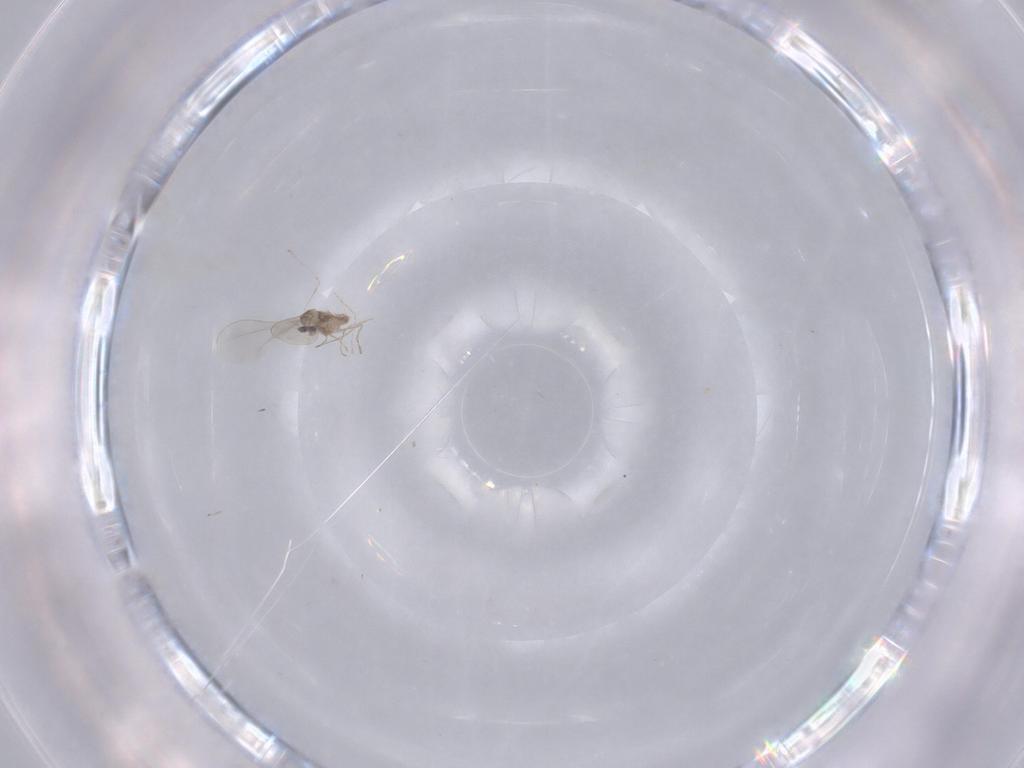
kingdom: Animalia
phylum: Arthropoda
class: Insecta
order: Diptera
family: Cecidomyiidae
